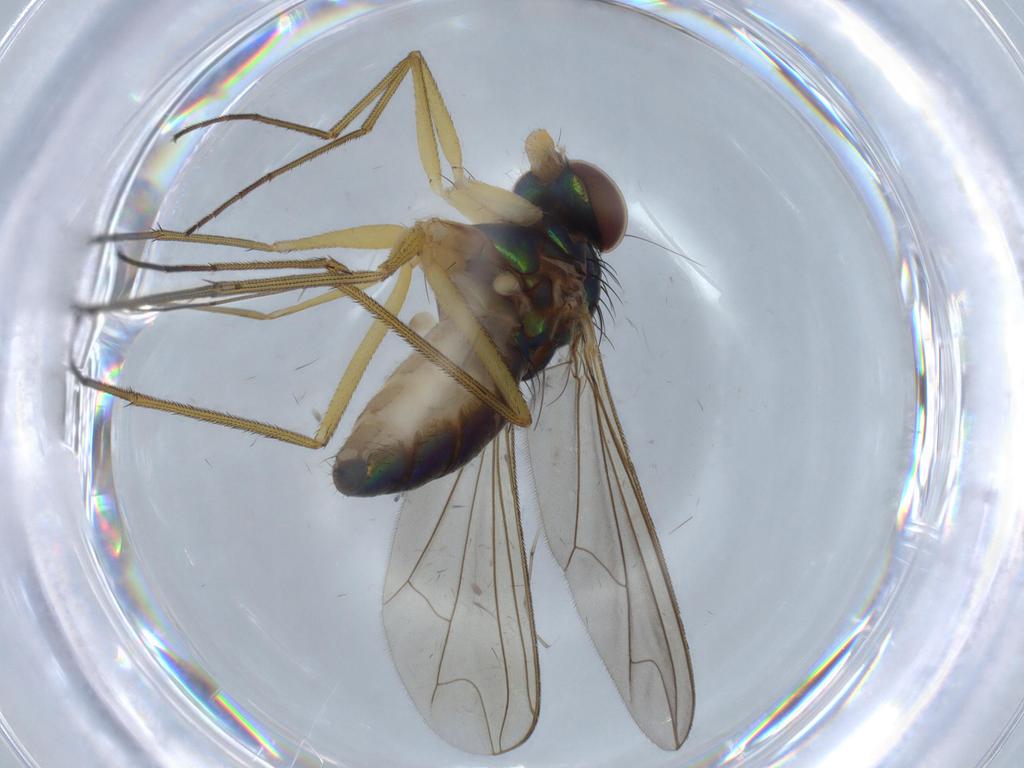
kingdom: Animalia
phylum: Arthropoda
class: Insecta
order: Diptera
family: Dolichopodidae
